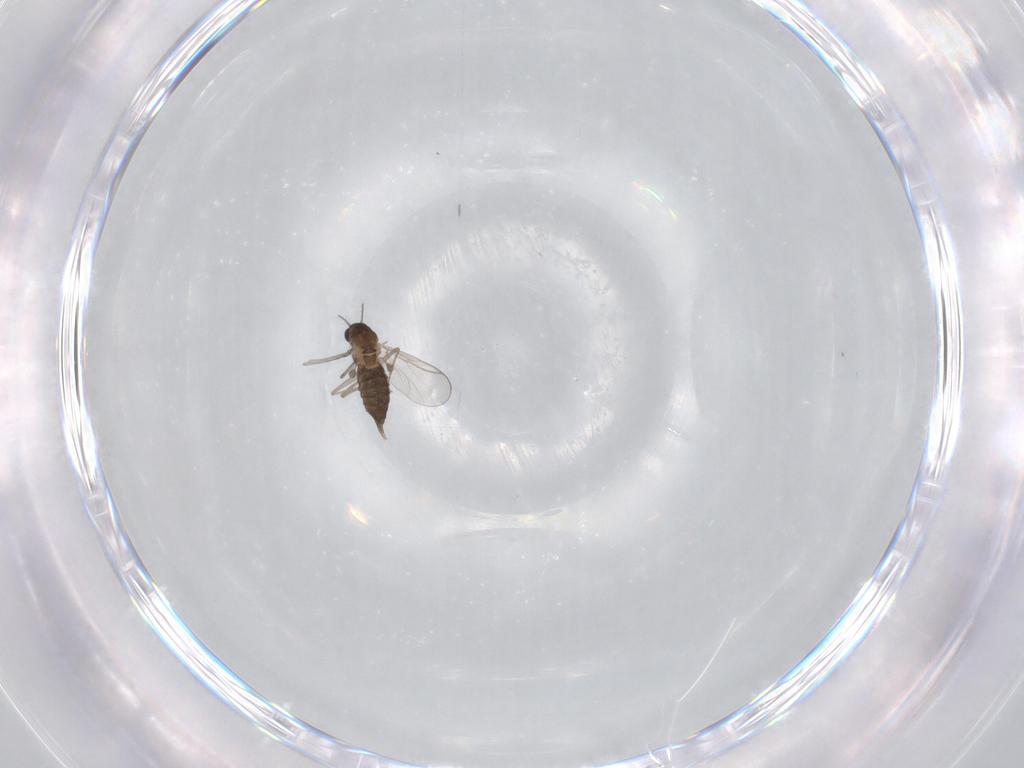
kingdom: Animalia
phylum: Arthropoda
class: Insecta
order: Diptera
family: Chironomidae
